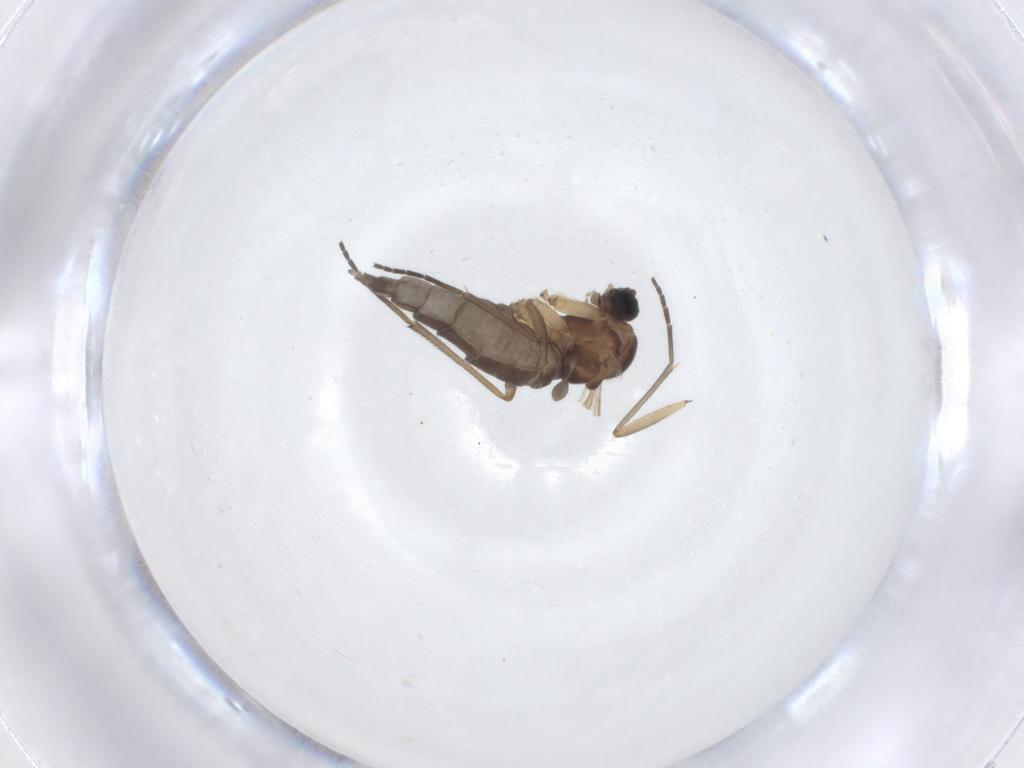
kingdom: Animalia
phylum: Arthropoda
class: Insecta
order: Diptera
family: Sciaridae
